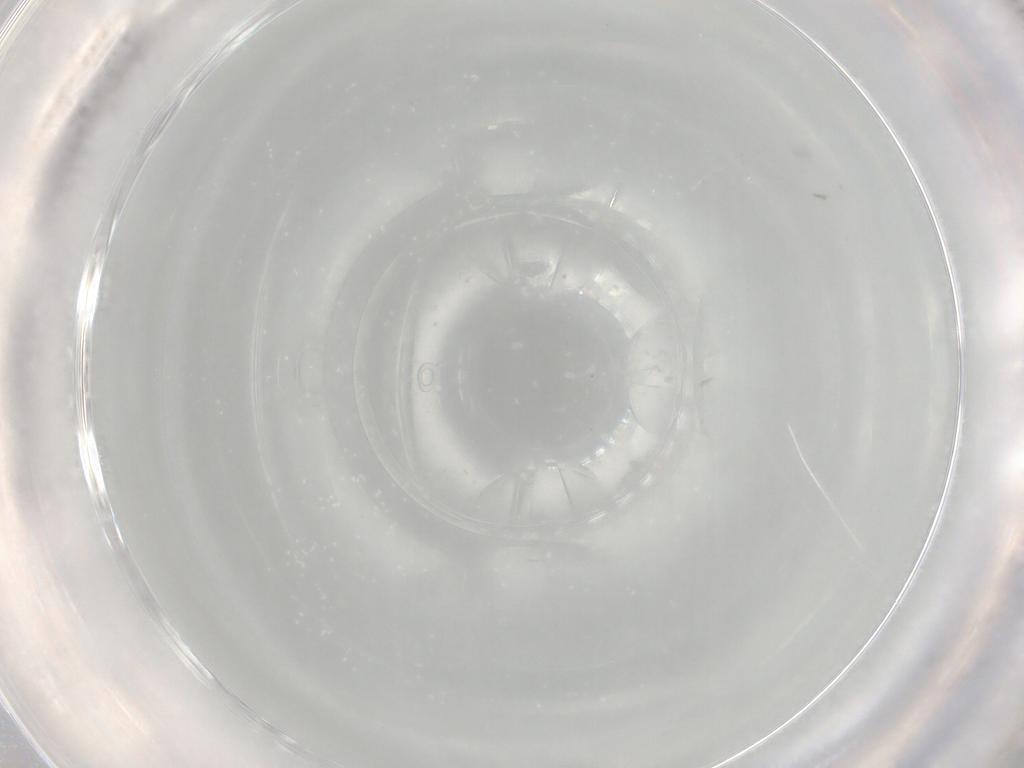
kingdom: Animalia
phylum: Arthropoda
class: Insecta
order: Diptera
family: Cecidomyiidae
